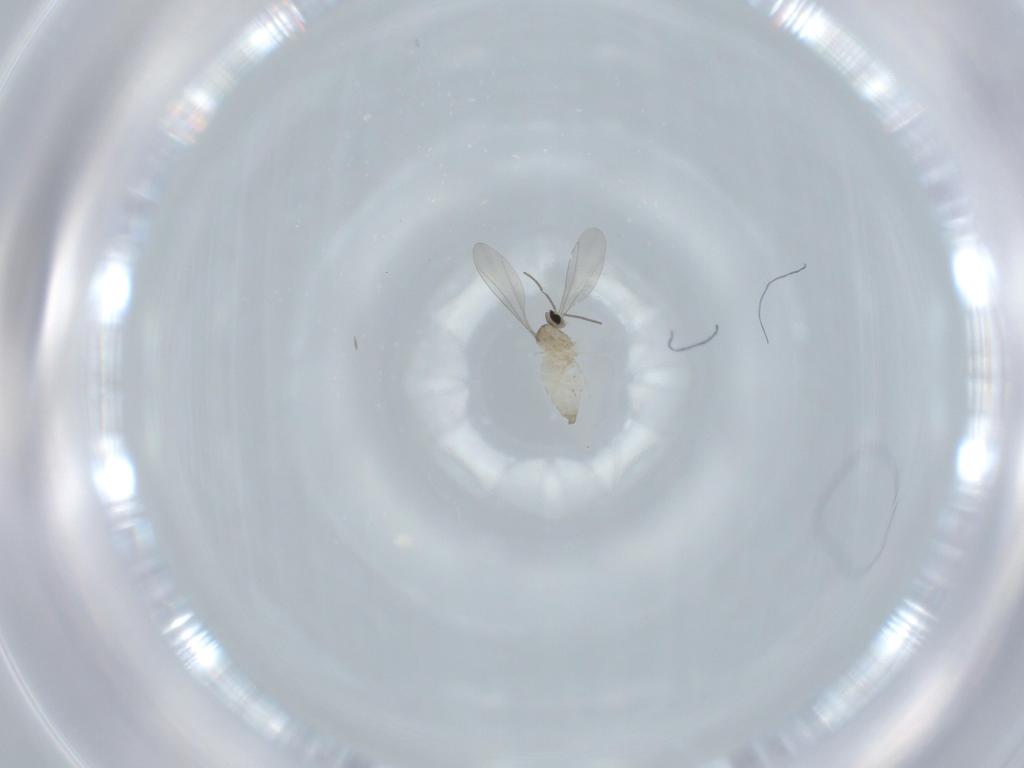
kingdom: Animalia
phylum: Arthropoda
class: Insecta
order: Diptera
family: Cecidomyiidae
